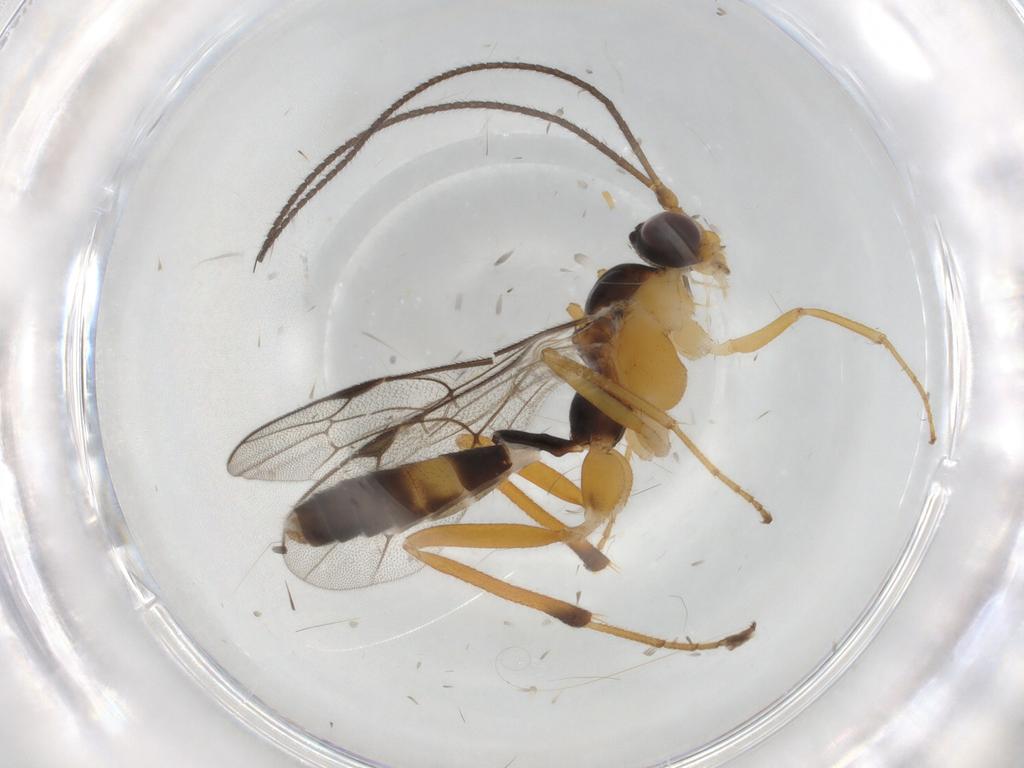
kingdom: Animalia
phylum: Arthropoda
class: Insecta
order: Hymenoptera
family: Ichneumonidae
